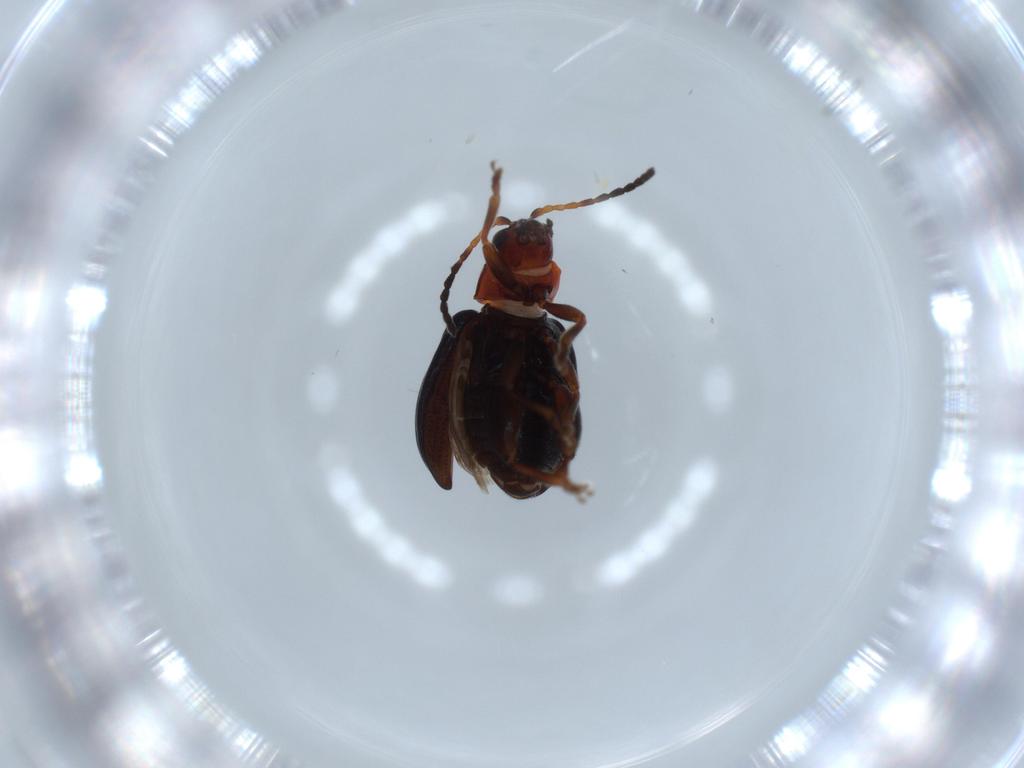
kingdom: Animalia
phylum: Arthropoda
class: Insecta
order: Coleoptera
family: Chrysomelidae
